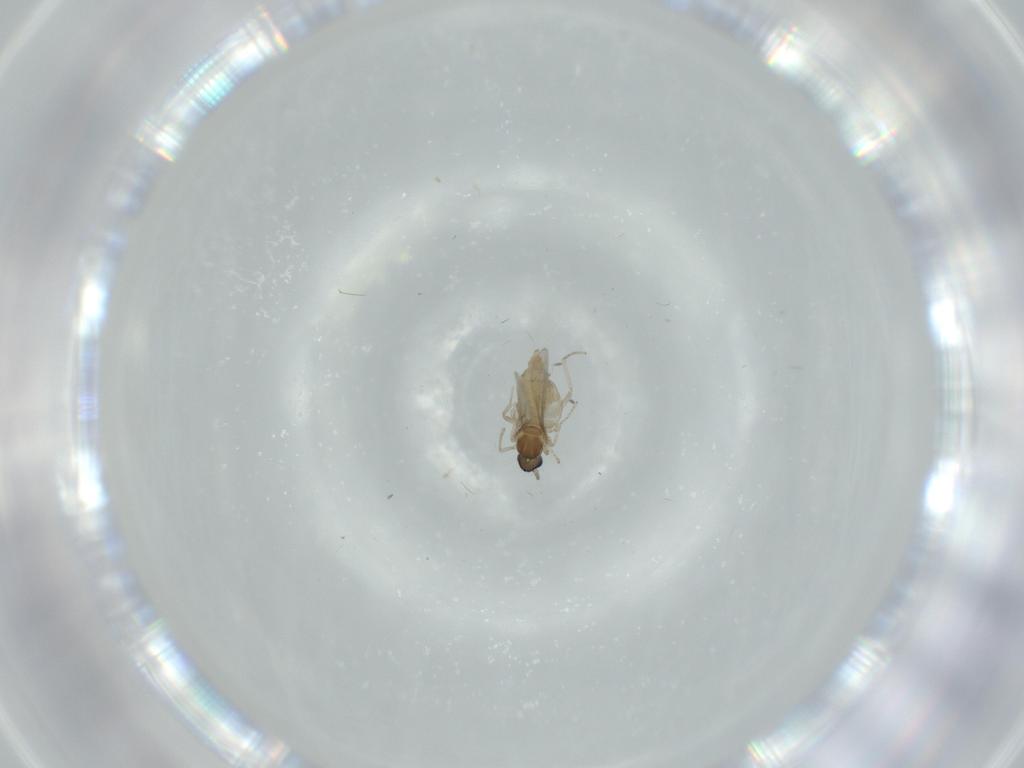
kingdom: Animalia
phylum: Arthropoda
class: Insecta
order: Diptera
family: Cecidomyiidae
